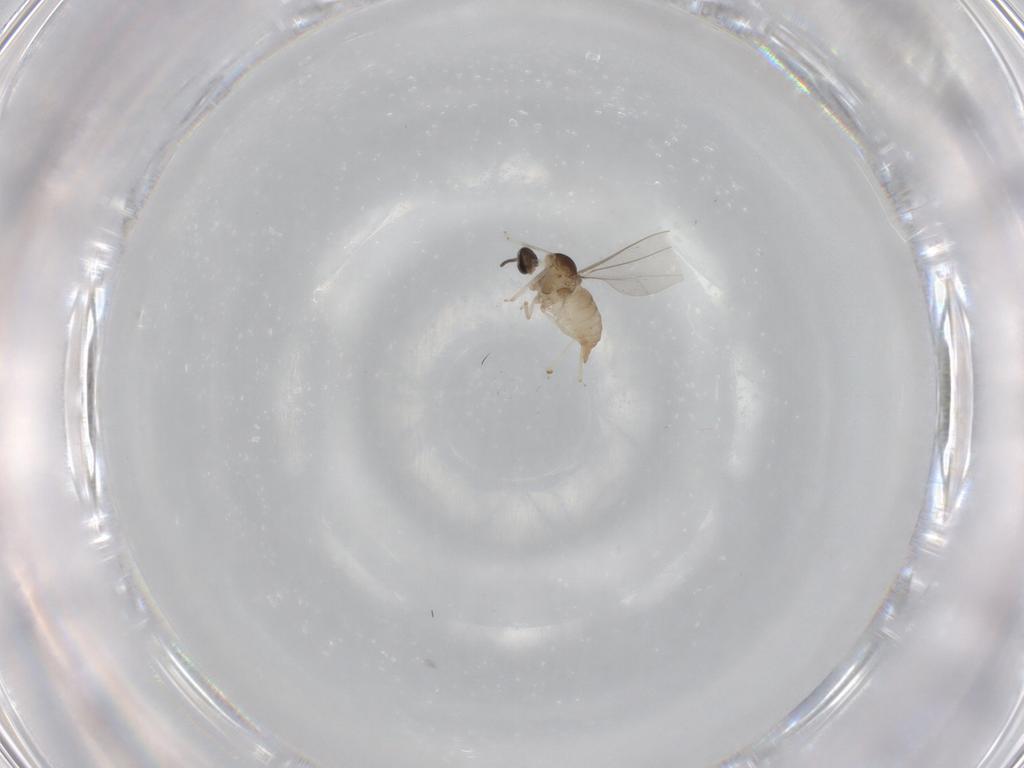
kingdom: Animalia
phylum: Arthropoda
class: Insecta
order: Diptera
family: Cecidomyiidae
